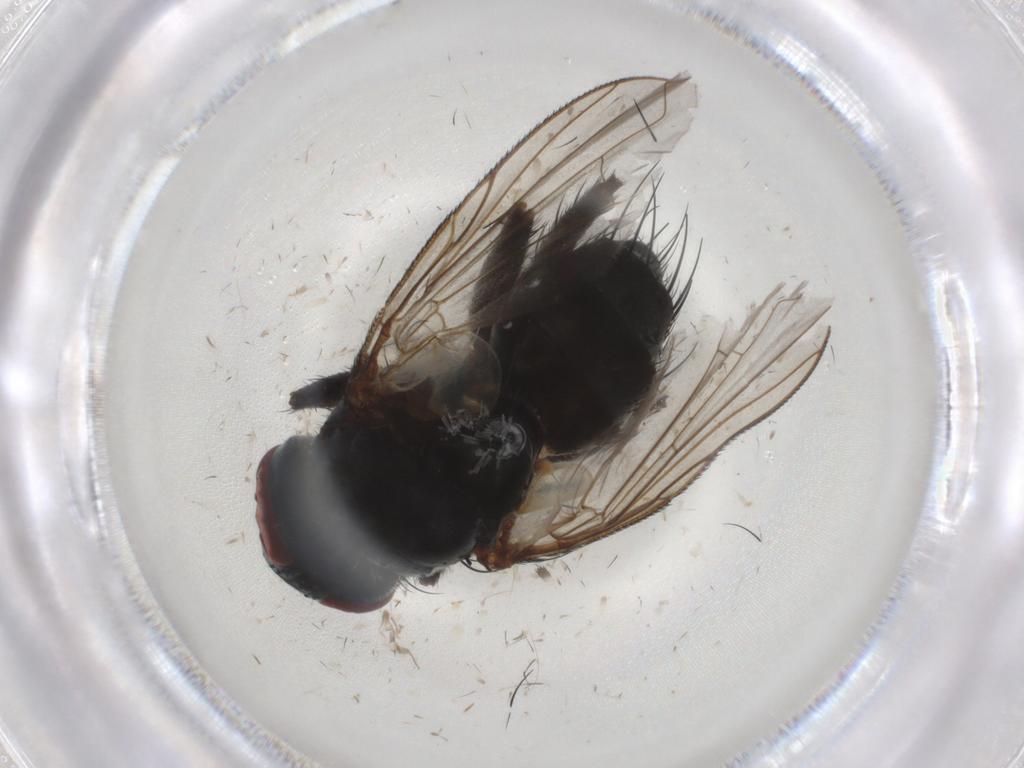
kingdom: Animalia
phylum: Arthropoda
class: Insecta
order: Diptera
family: Tachinidae
